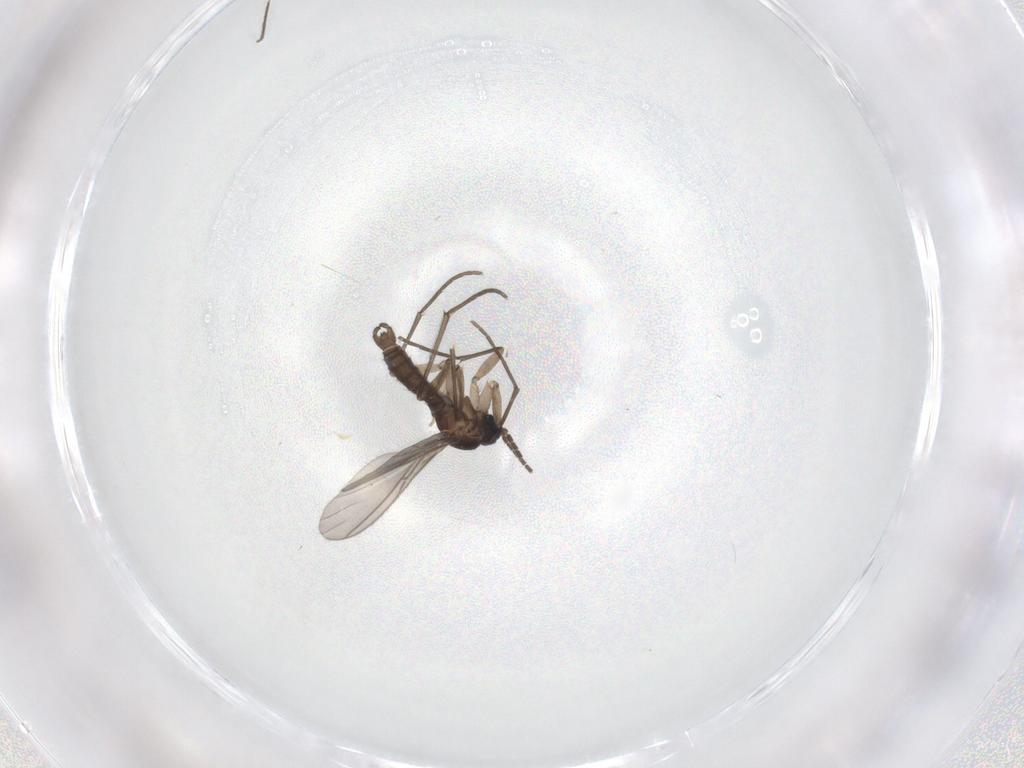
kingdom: Animalia
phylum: Arthropoda
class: Insecta
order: Diptera
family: Sciaridae
